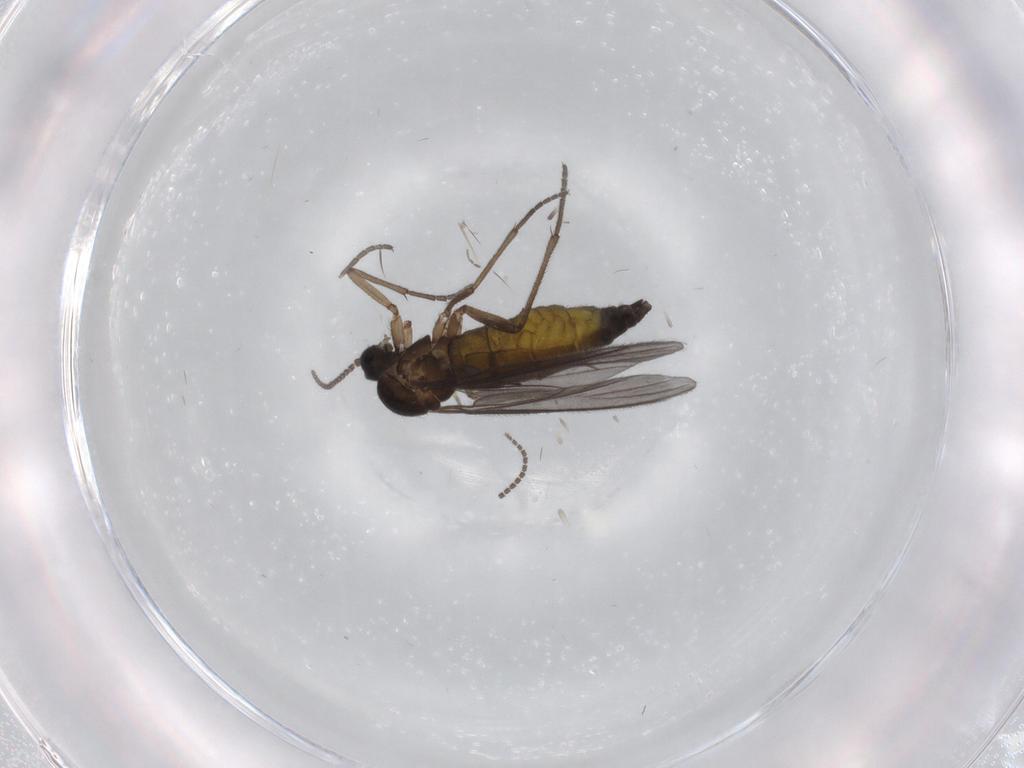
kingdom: Animalia
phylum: Arthropoda
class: Insecta
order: Diptera
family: Sciaridae
